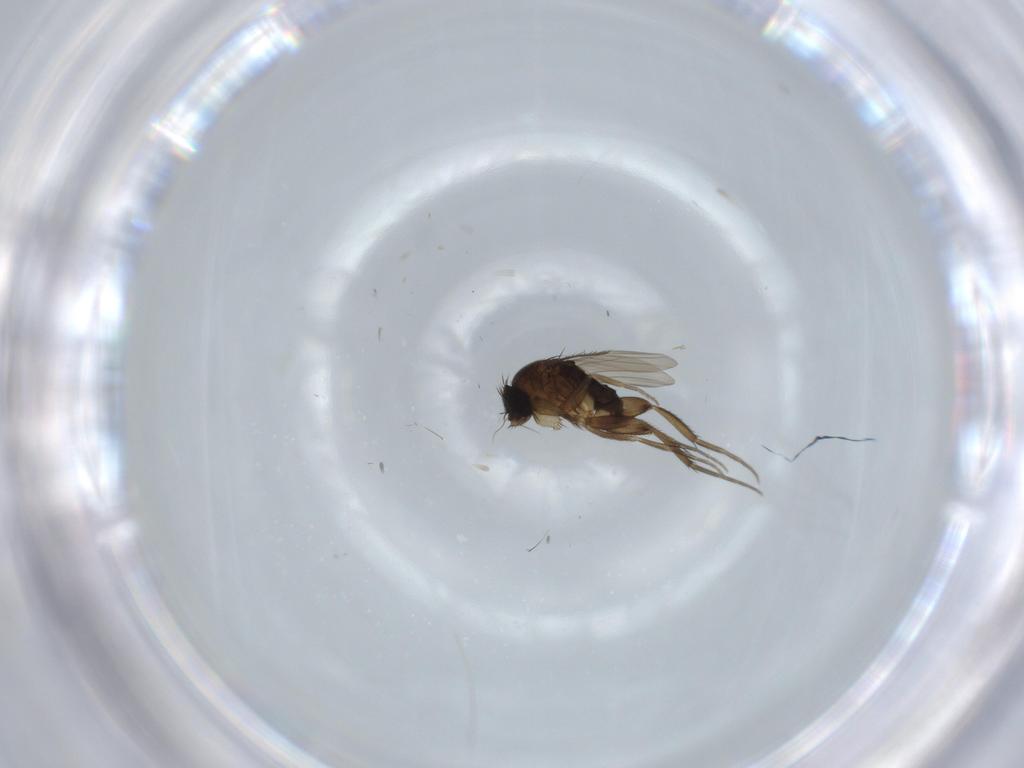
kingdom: Animalia
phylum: Arthropoda
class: Insecta
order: Diptera
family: Phoridae
